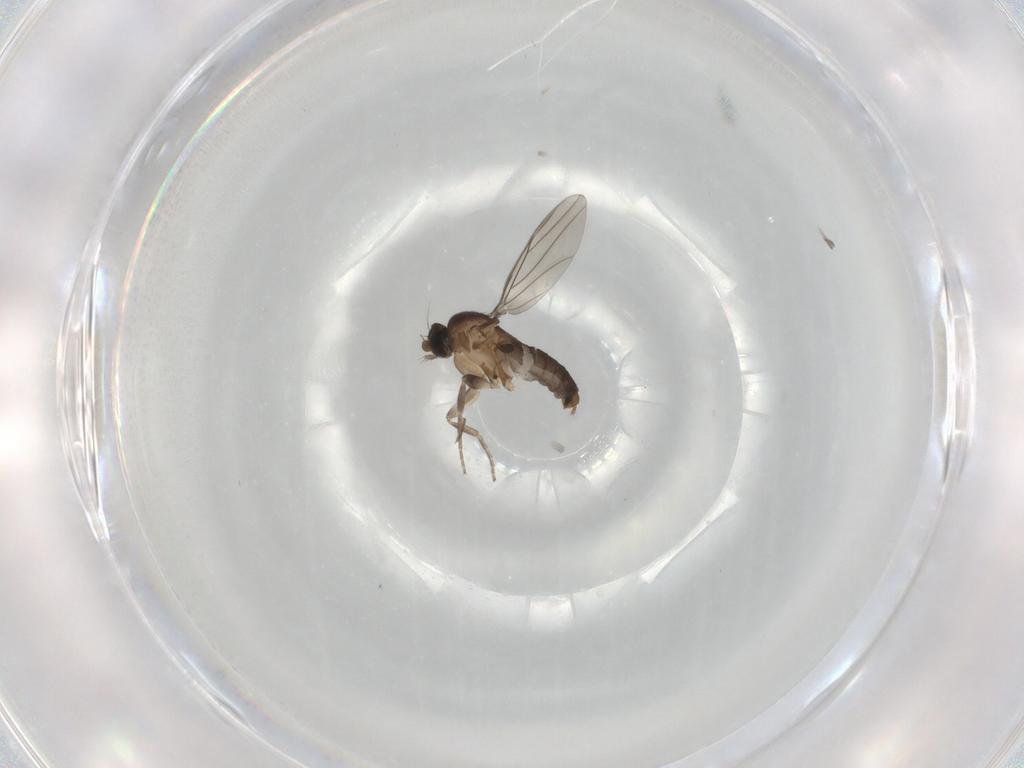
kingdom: Animalia
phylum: Arthropoda
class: Insecta
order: Diptera
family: Phoridae
